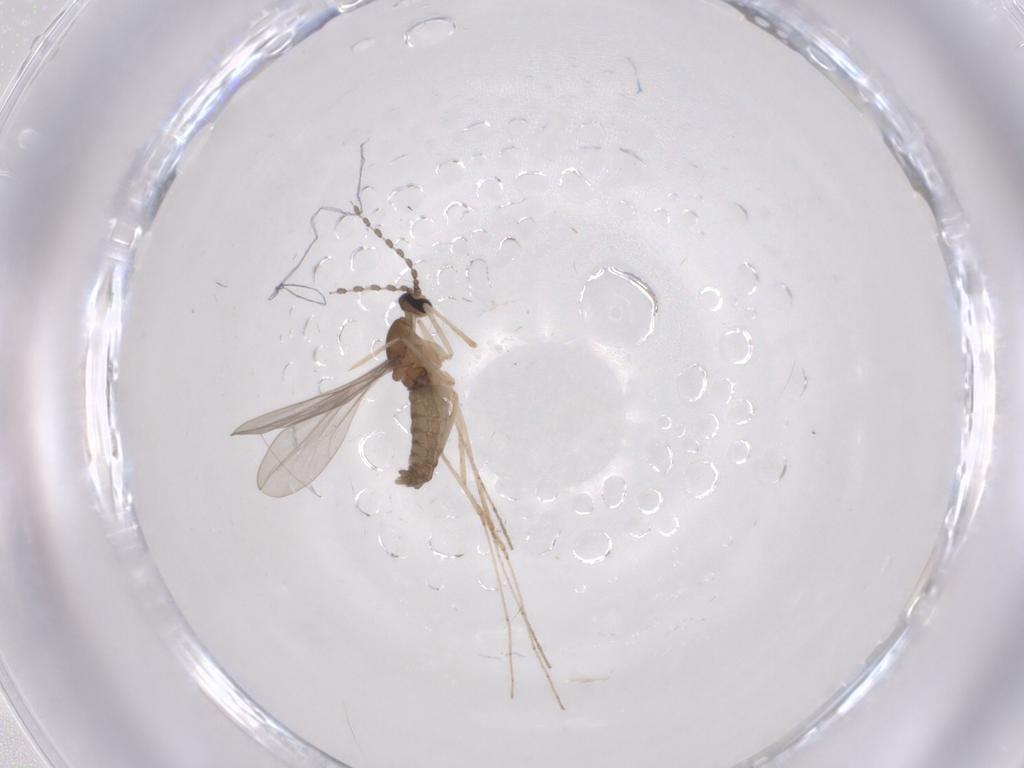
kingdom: Animalia
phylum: Arthropoda
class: Insecta
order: Diptera
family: Cecidomyiidae
